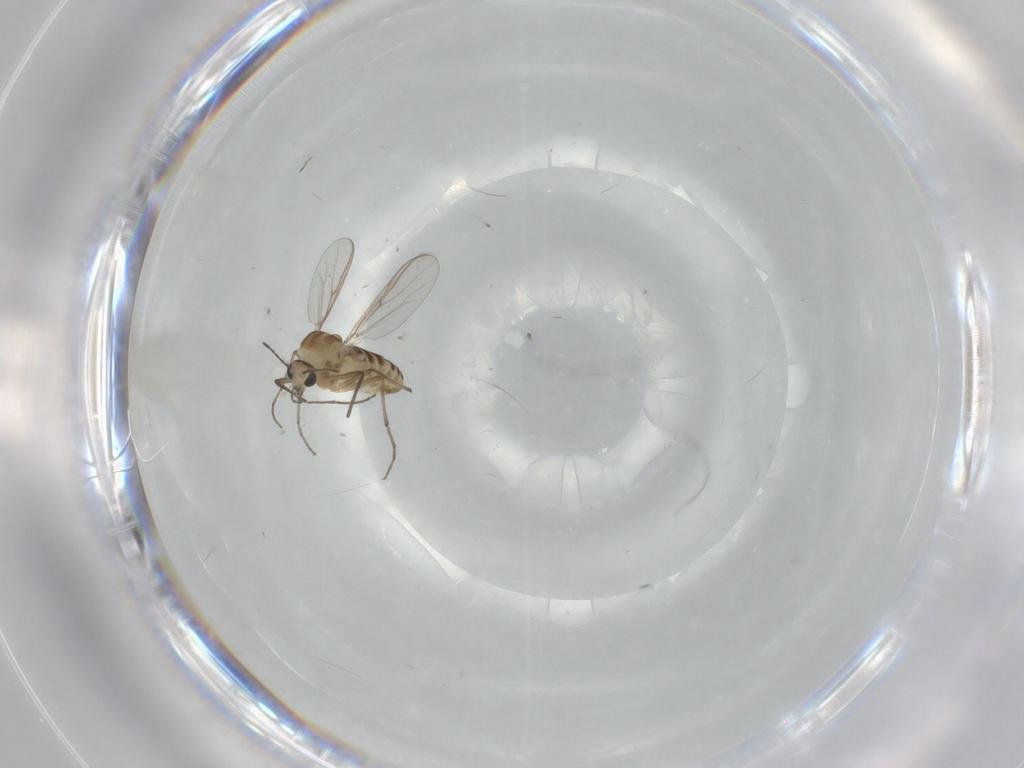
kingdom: Animalia
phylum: Arthropoda
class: Insecta
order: Diptera
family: Chironomidae
